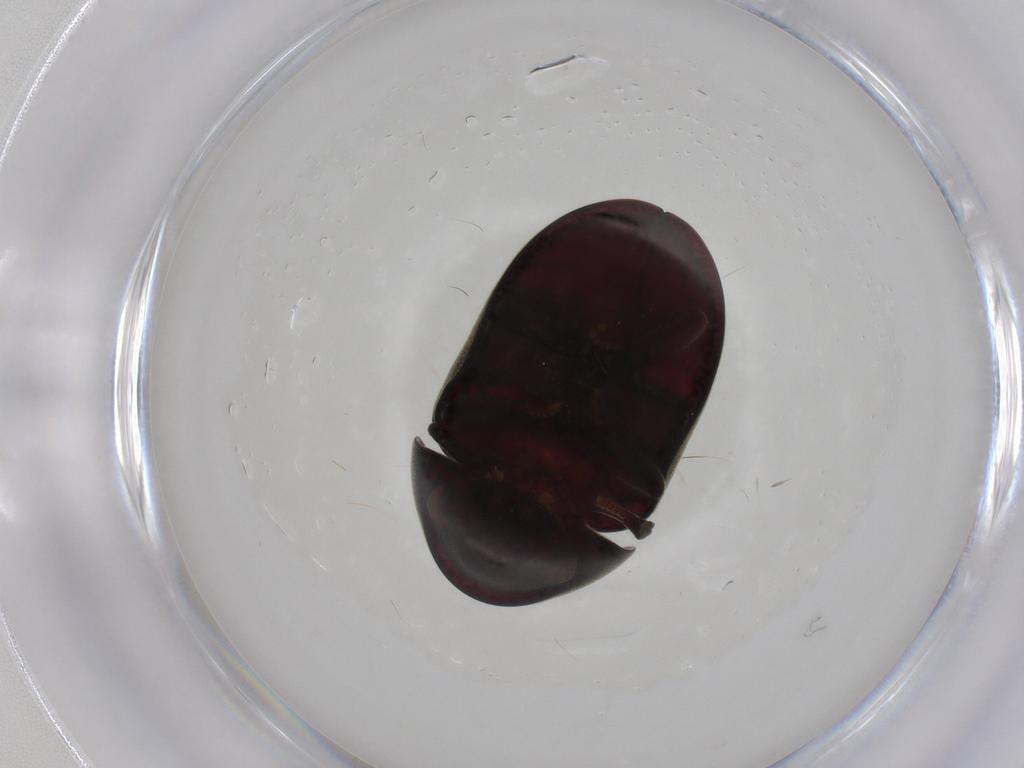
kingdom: Animalia
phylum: Arthropoda
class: Insecta
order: Coleoptera
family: Ptinidae
